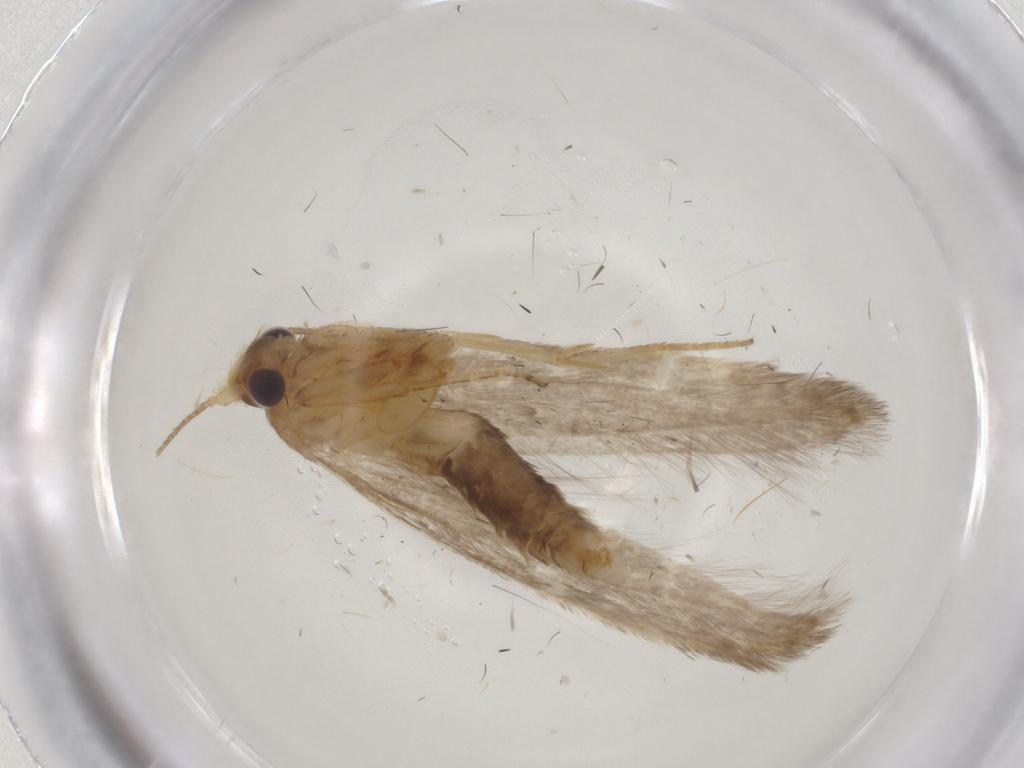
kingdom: Animalia
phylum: Arthropoda
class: Insecta
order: Lepidoptera
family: Coleophoridae
